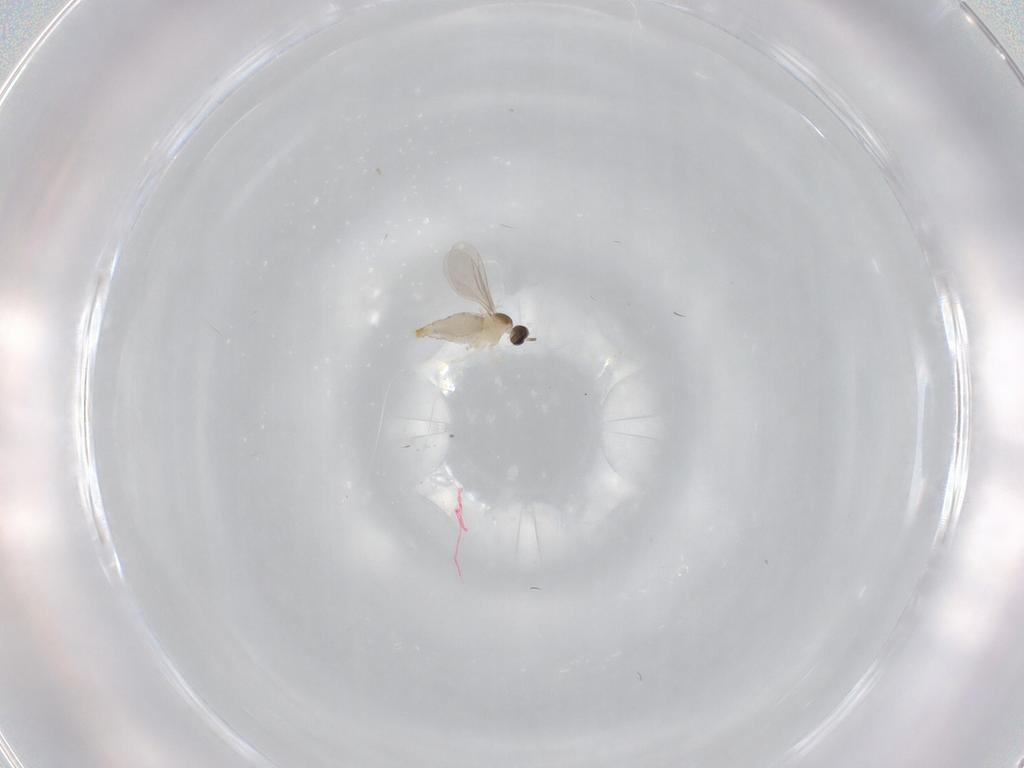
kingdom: Animalia
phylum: Arthropoda
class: Insecta
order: Diptera
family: Cecidomyiidae
